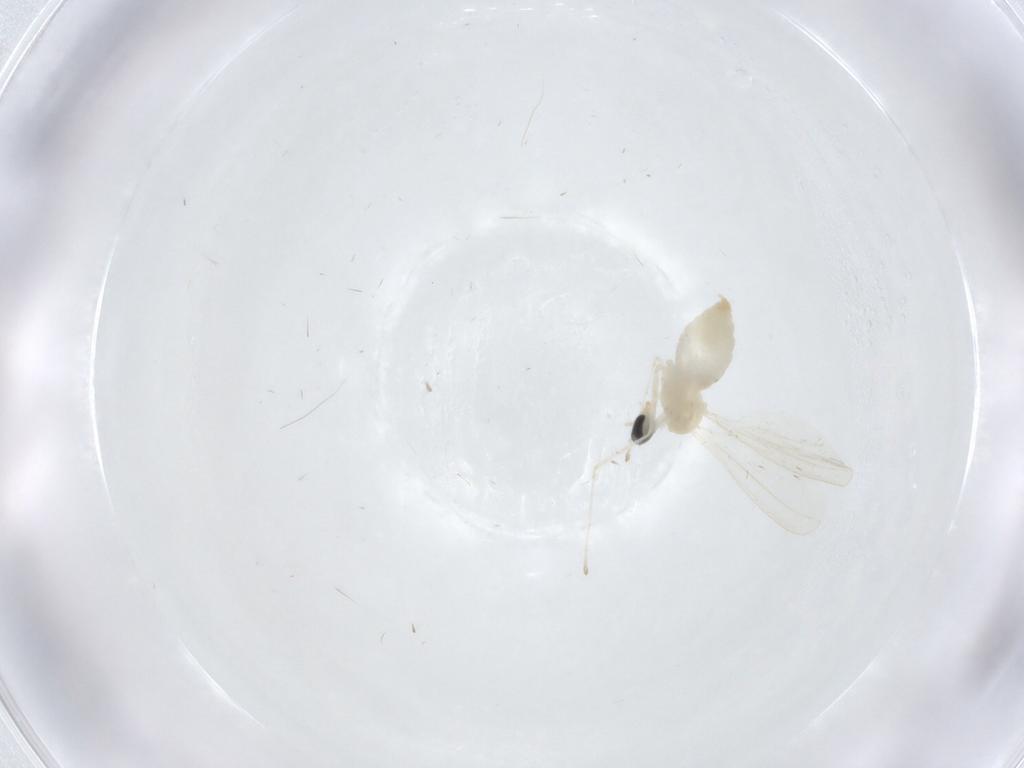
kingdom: Animalia
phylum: Arthropoda
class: Insecta
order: Diptera
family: Cecidomyiidae
